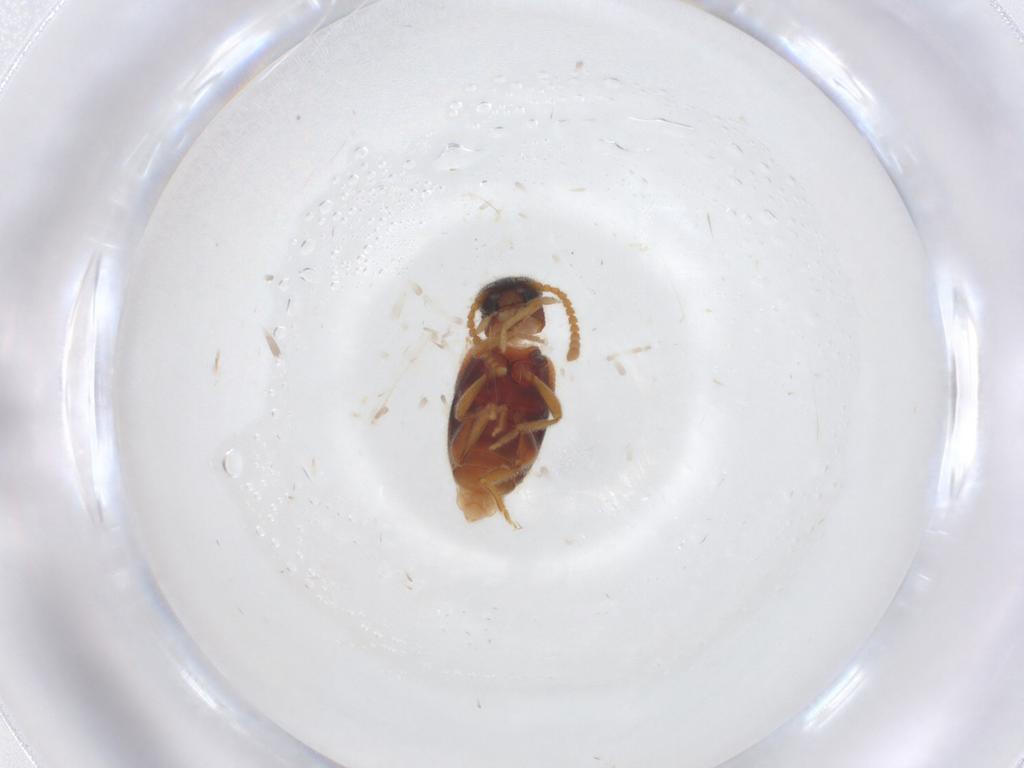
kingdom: Animalia
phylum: Arthropoda
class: Insecta
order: Coleoptera
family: Aderidae
